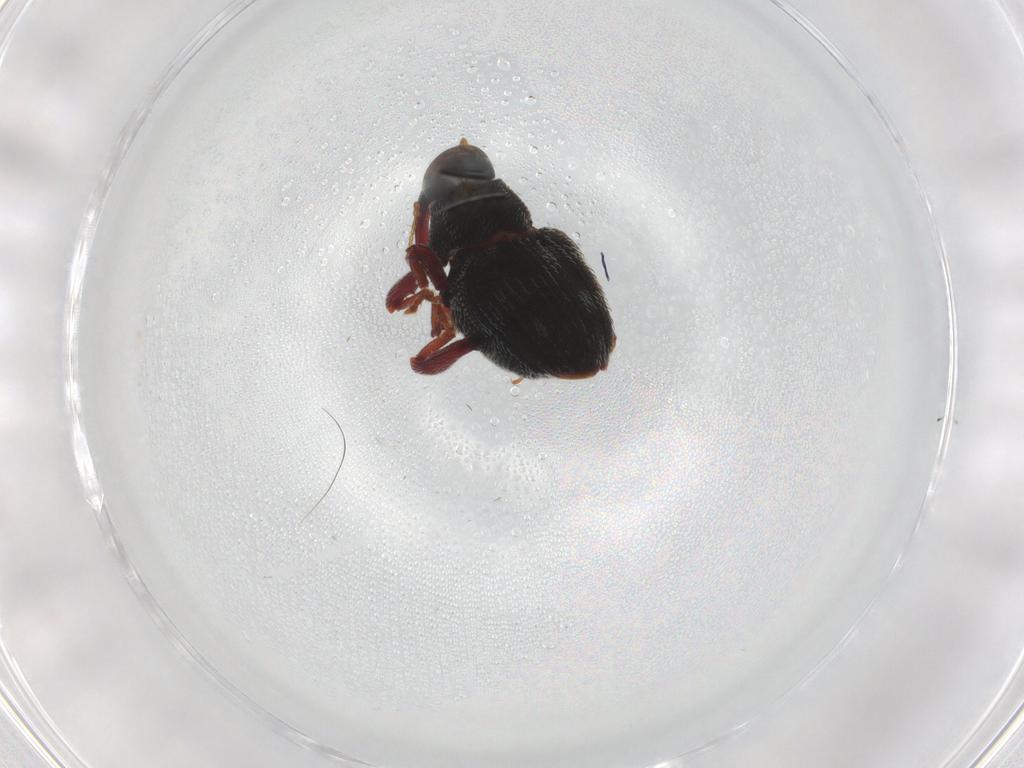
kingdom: Animalia
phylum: Arthropoda
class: Insecta
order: Coleoptera
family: Curculionidae
